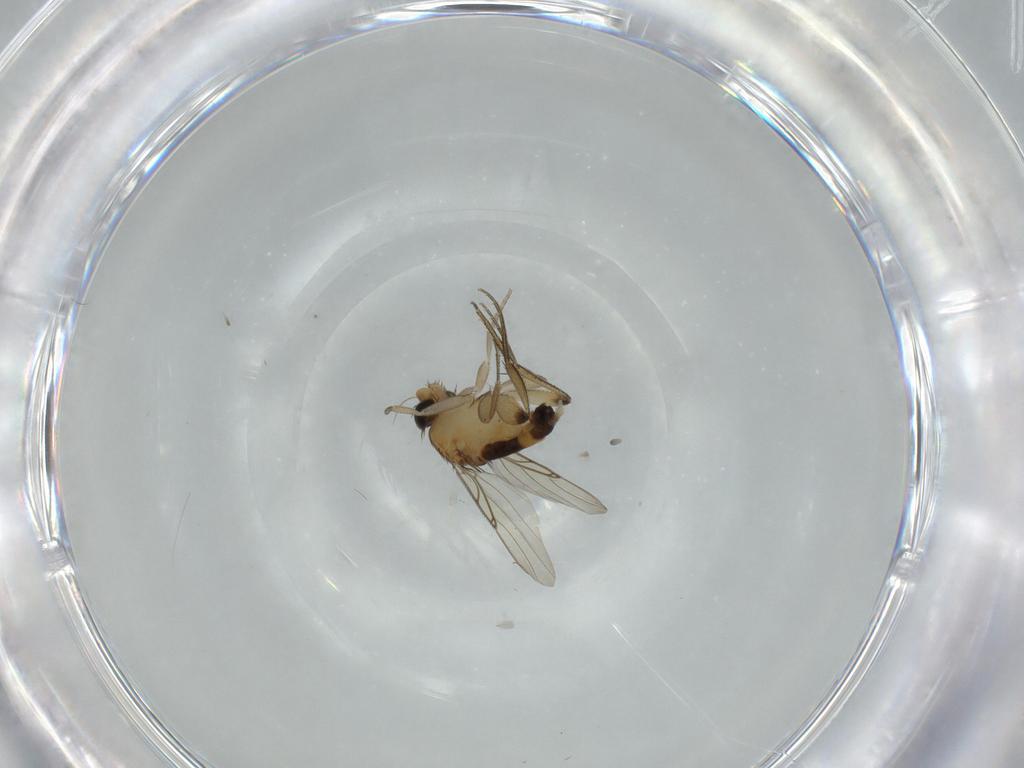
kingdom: Animalia
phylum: Arthropoda
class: Insecta
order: Diptera
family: Phoridae
